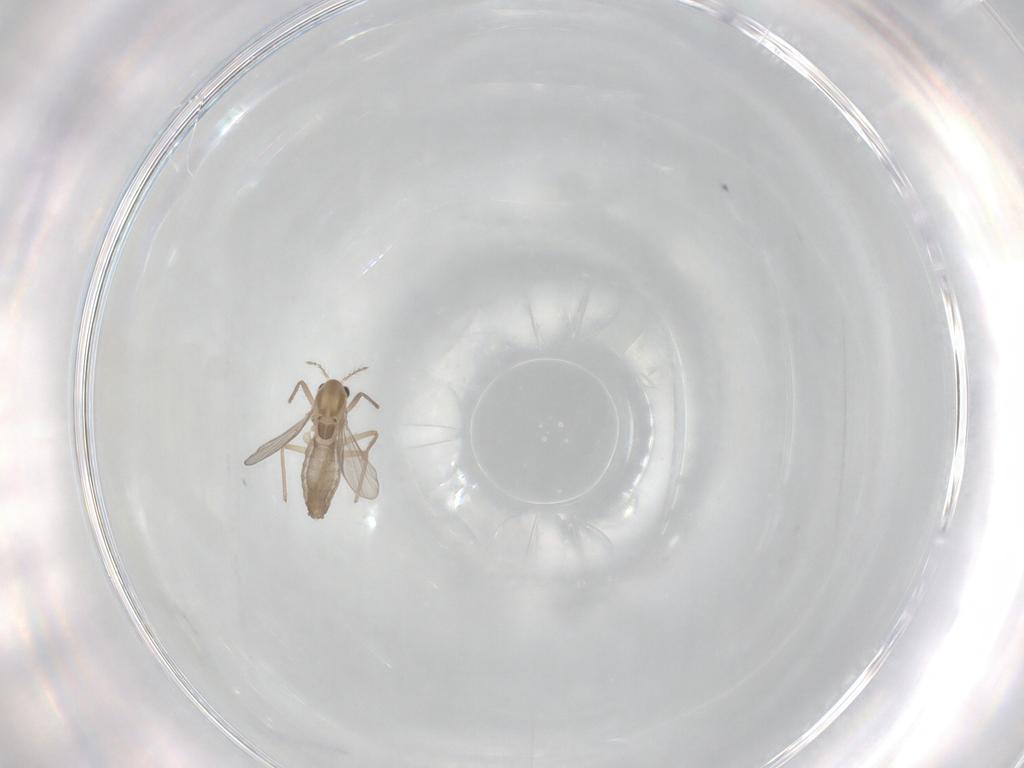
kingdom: Animalia
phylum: Arthropoda
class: Insecta
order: Diptera
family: Chironomidae
